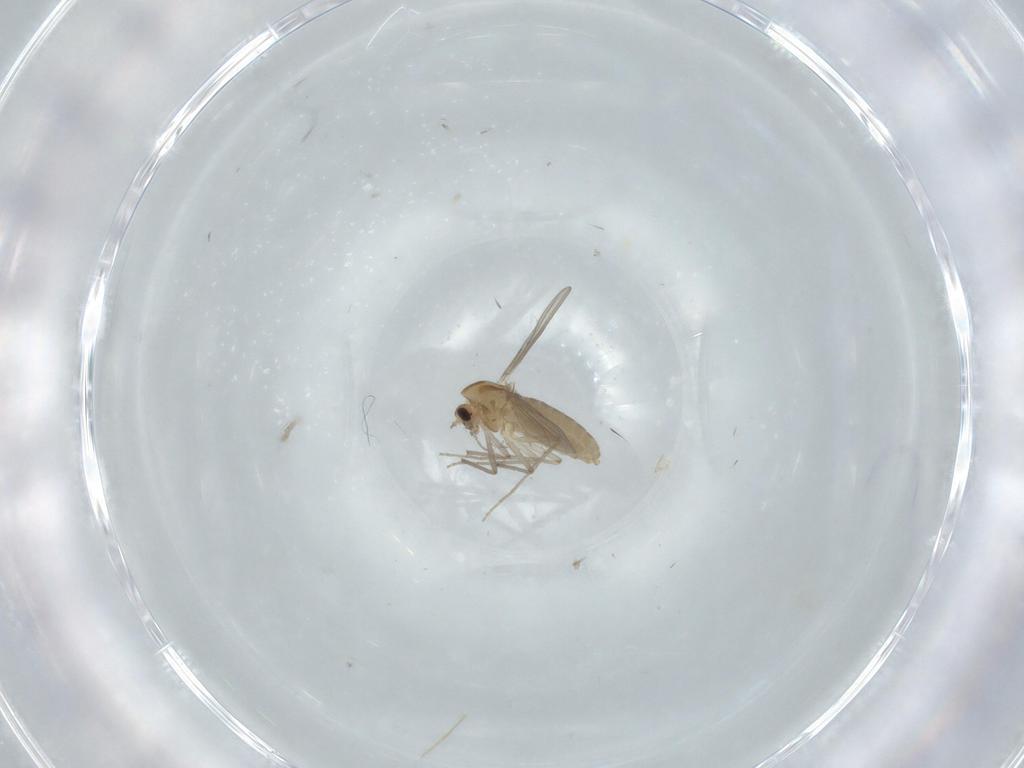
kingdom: Animalia
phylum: Arthropoda
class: Insecta
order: Diptera
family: Chironomidae
